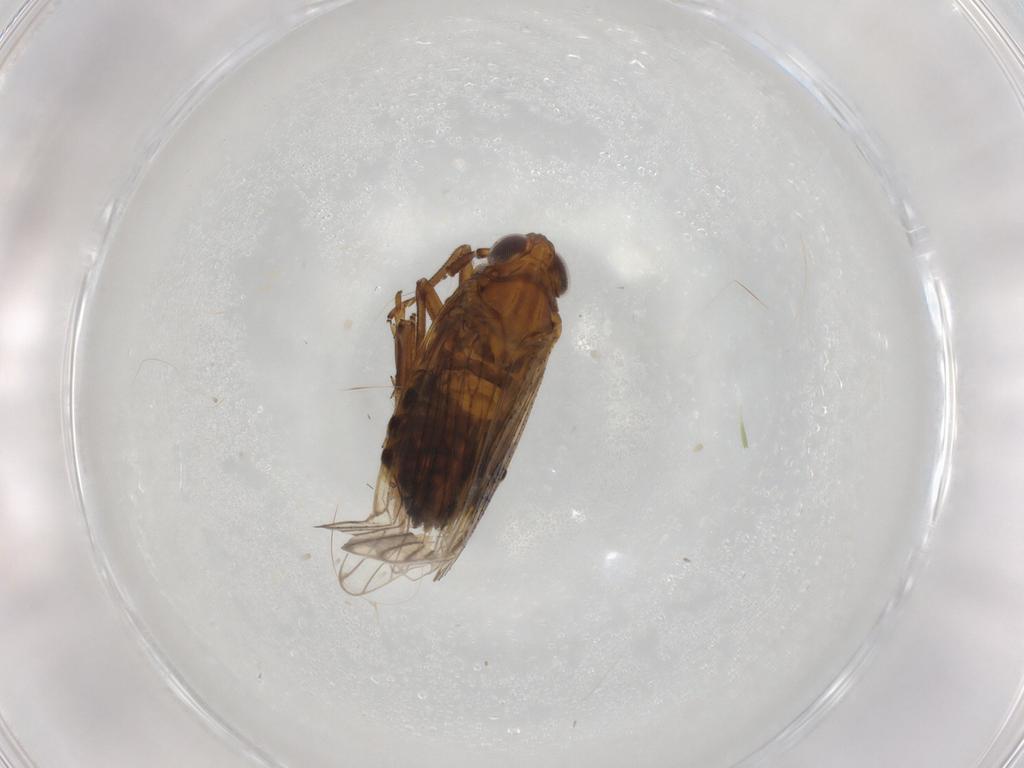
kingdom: Animalia
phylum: Arthropoda
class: Insecta
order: Hemiptera
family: Delphacidae
